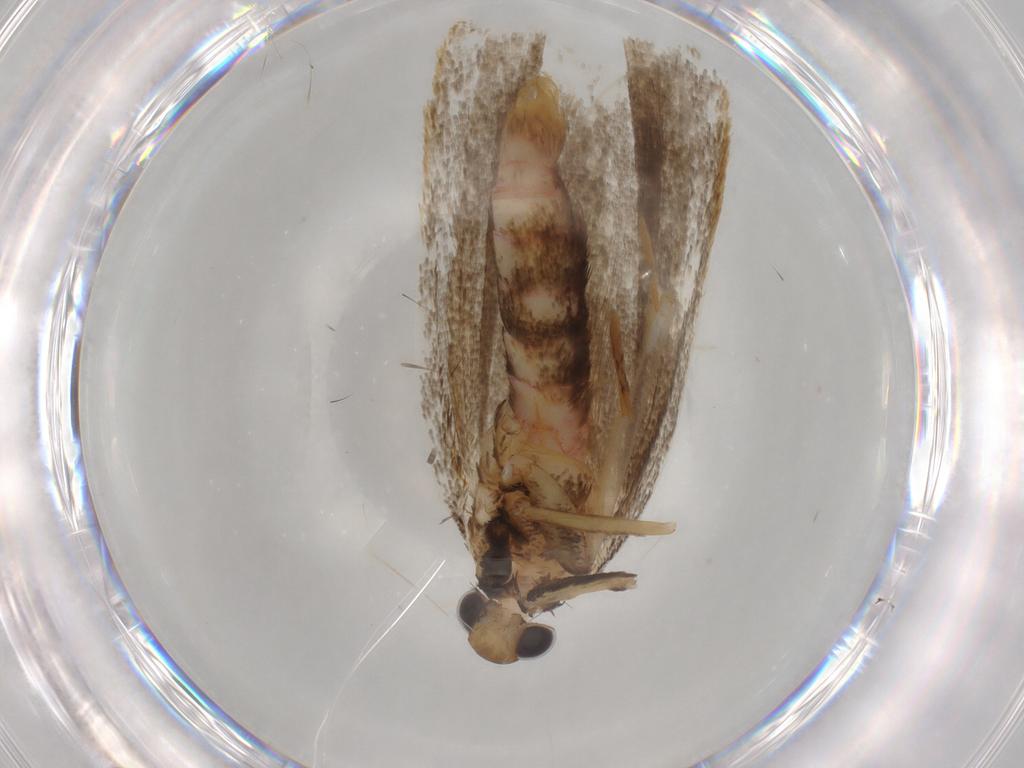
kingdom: Animalia
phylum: Arthropoda
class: Insecta
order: Lepidoptera
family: Lecithoceridae
